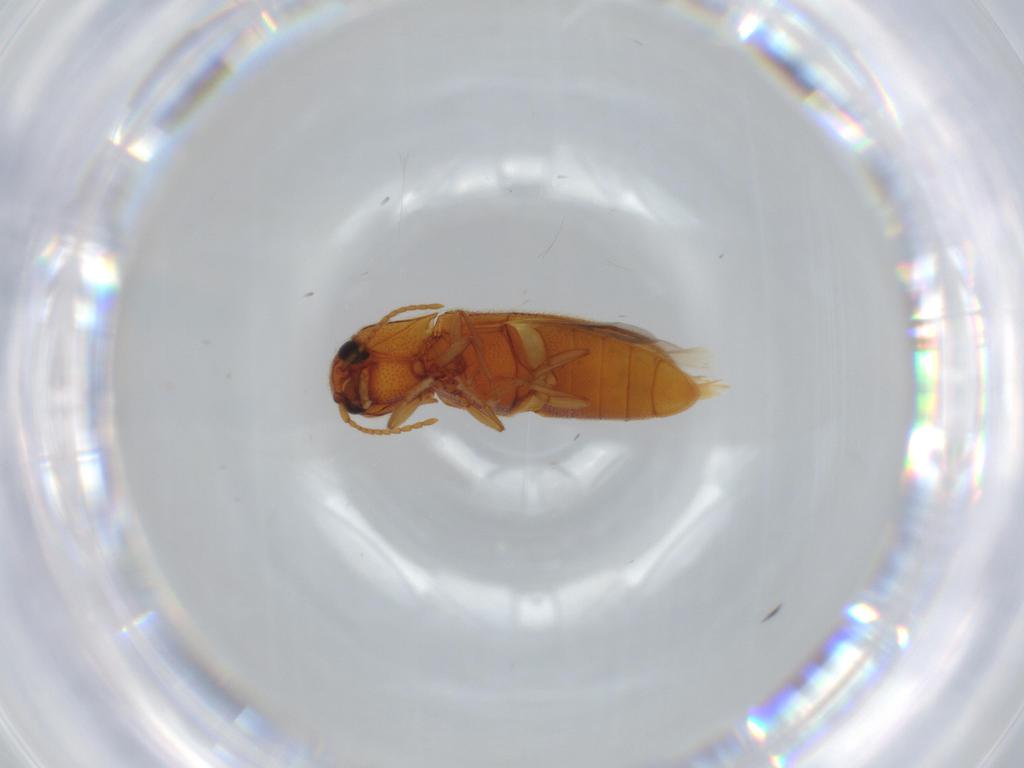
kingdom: Animalia
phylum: Arthropoda
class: Insecta
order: Coleoptera
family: Elateridae
